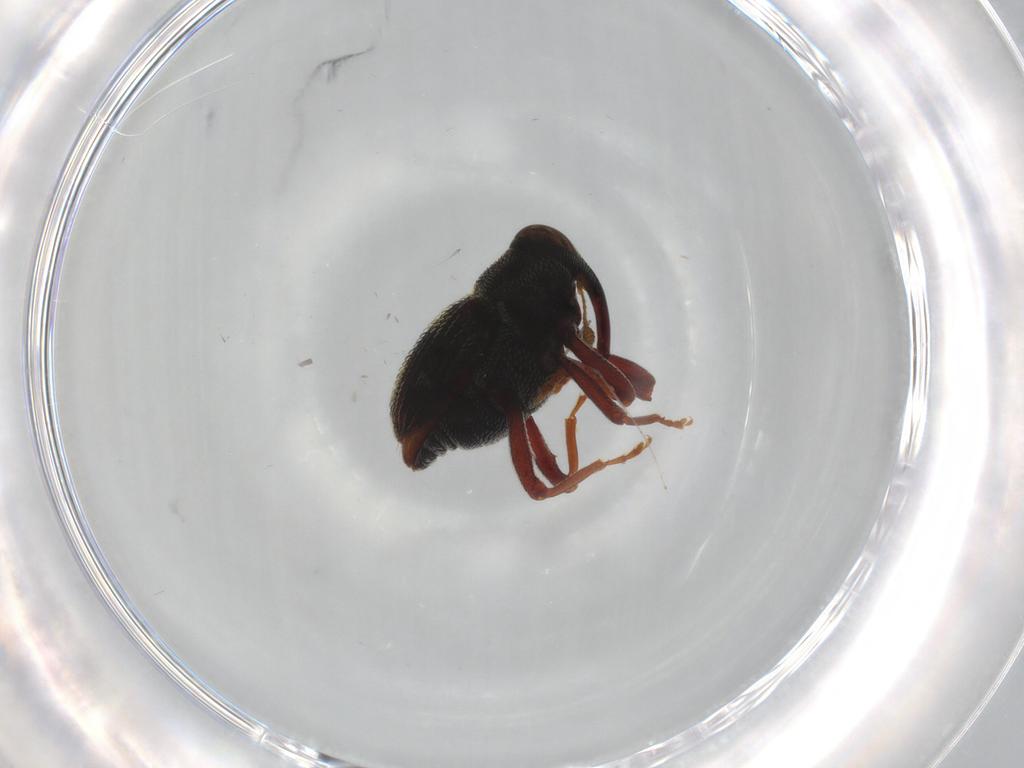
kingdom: Animalia
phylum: Arthropoda
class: Insecta
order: Coleoptera
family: Curculionidae
